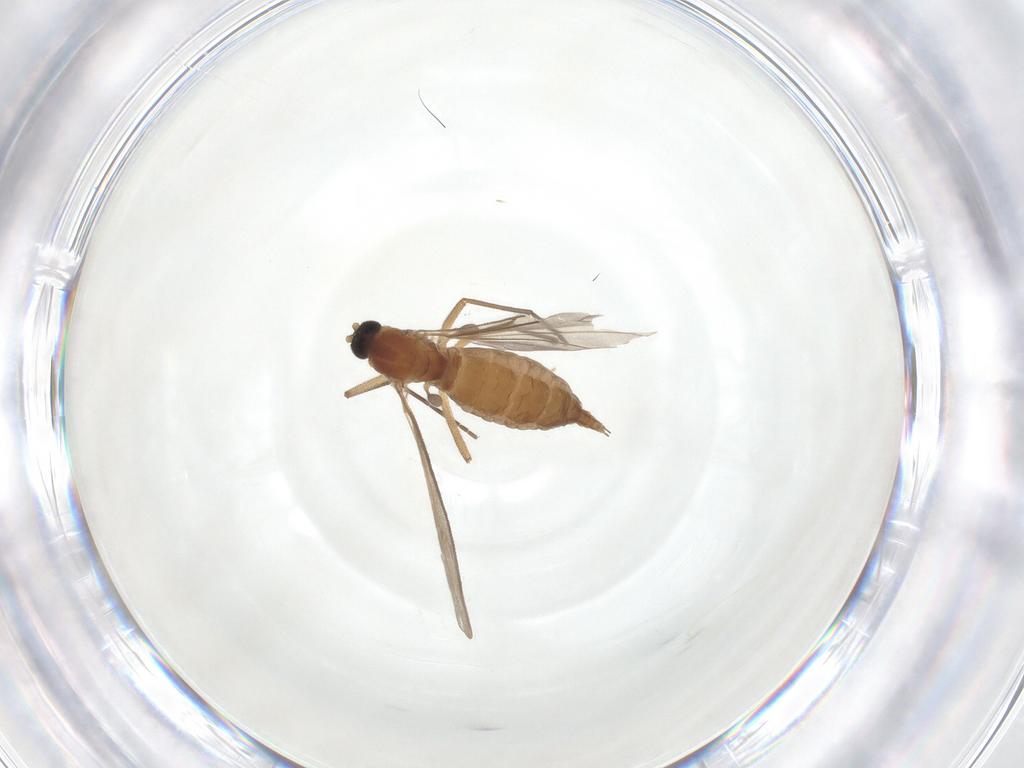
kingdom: Animalia
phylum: Arthropoda
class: Insecta
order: Diptera
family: Sciaridae
